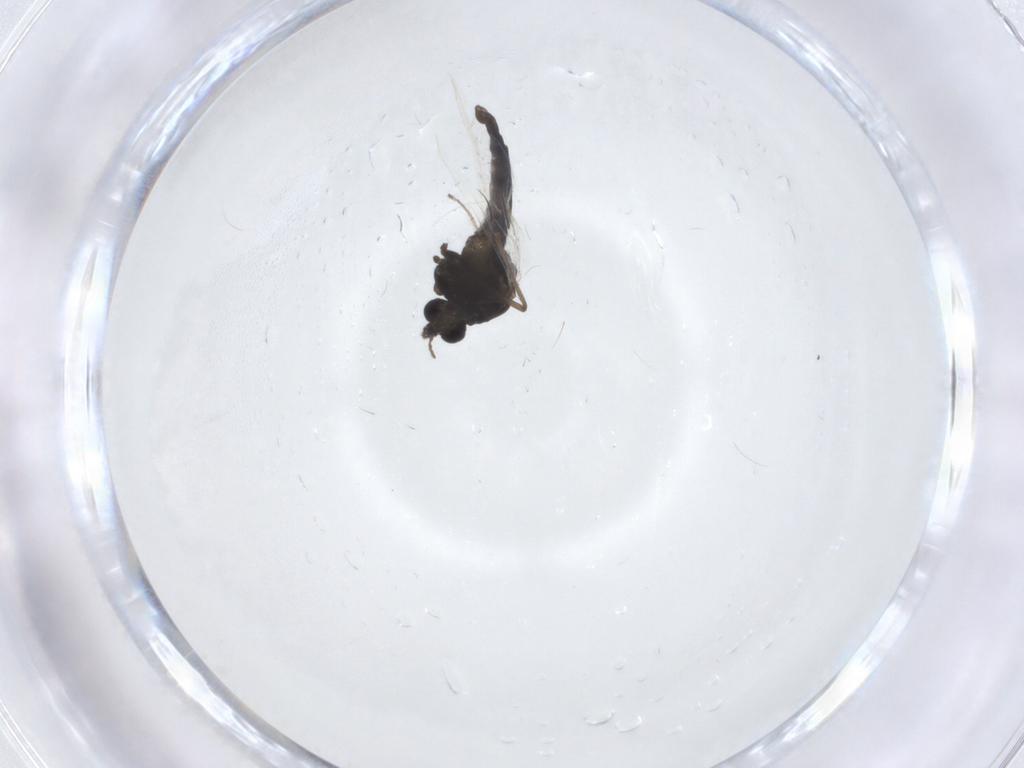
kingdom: Animalia
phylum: Arthropoda
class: Insecta
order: Diptera
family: Chironomidae
